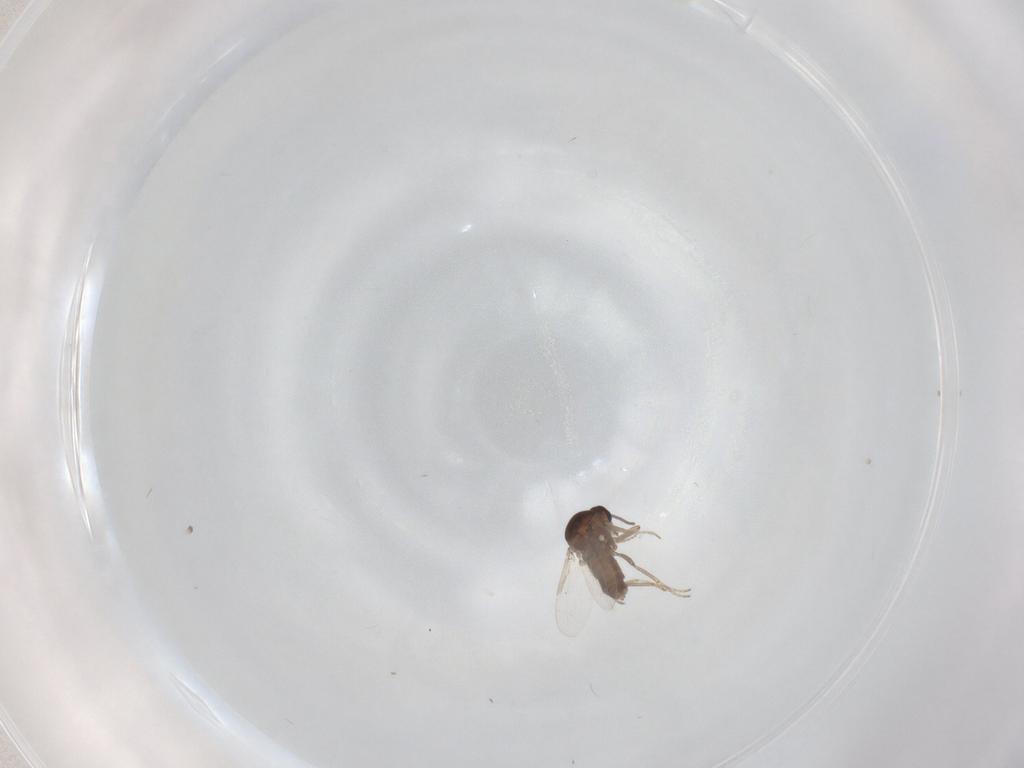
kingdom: Animalia
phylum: Arthropoda
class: Insecta
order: Diptera
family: Ceratopogonidae
